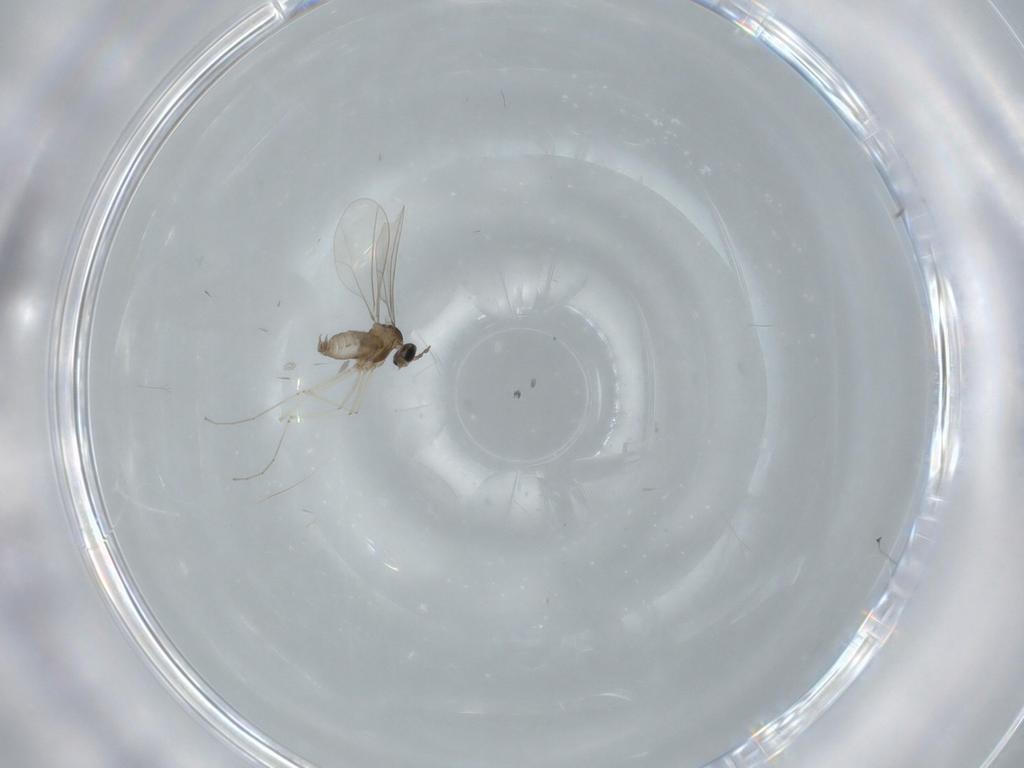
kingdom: Animalia
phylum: Arthropoda
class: Insecta
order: Diptera
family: Cecidomyiidae
